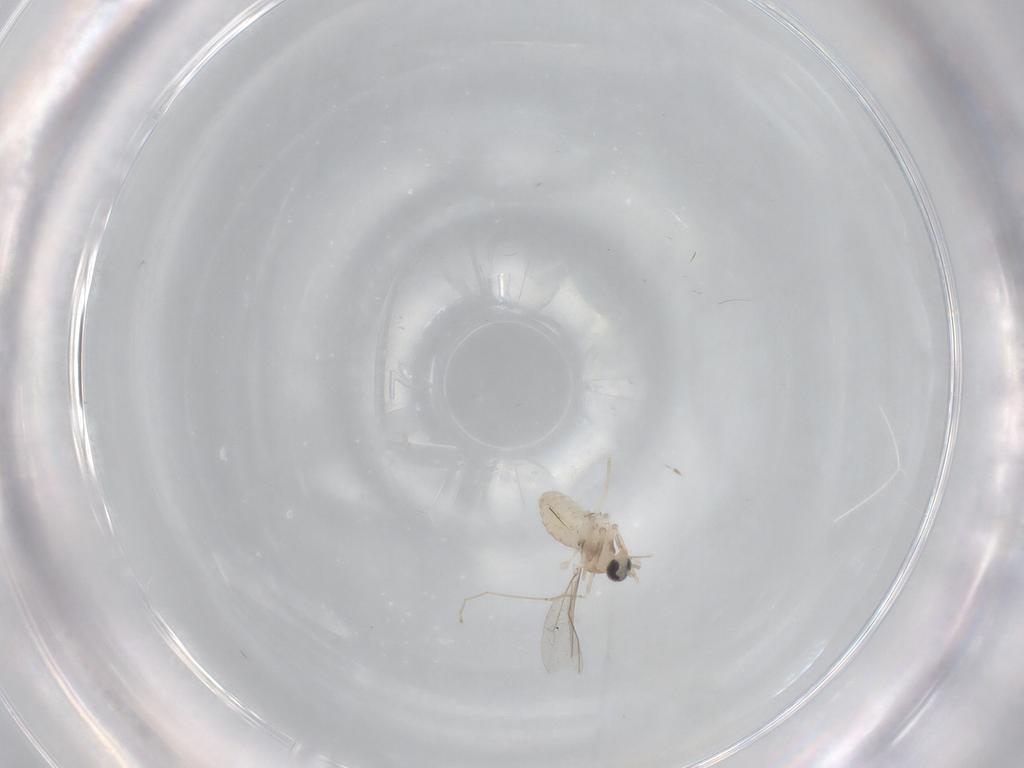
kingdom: Animalia
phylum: Arthropoda
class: Insecta
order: Diptera
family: Cecidomyiidae
